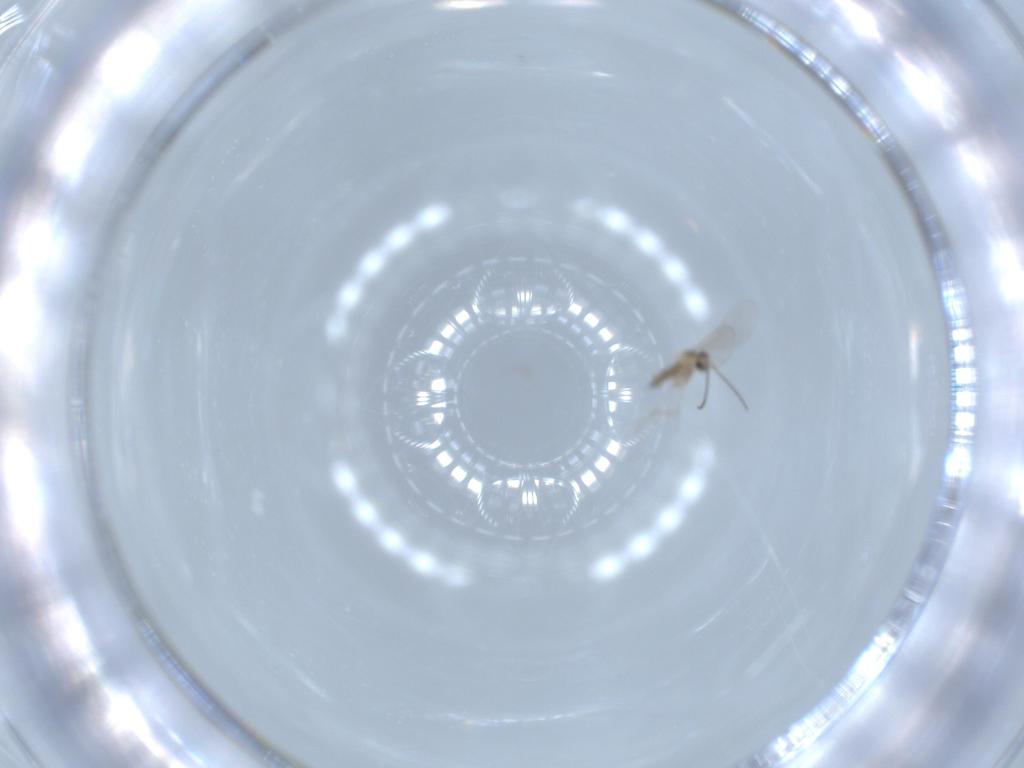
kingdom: Animalia
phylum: Arthropoda
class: Insecta
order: Diptera
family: Cecidomyiidae
